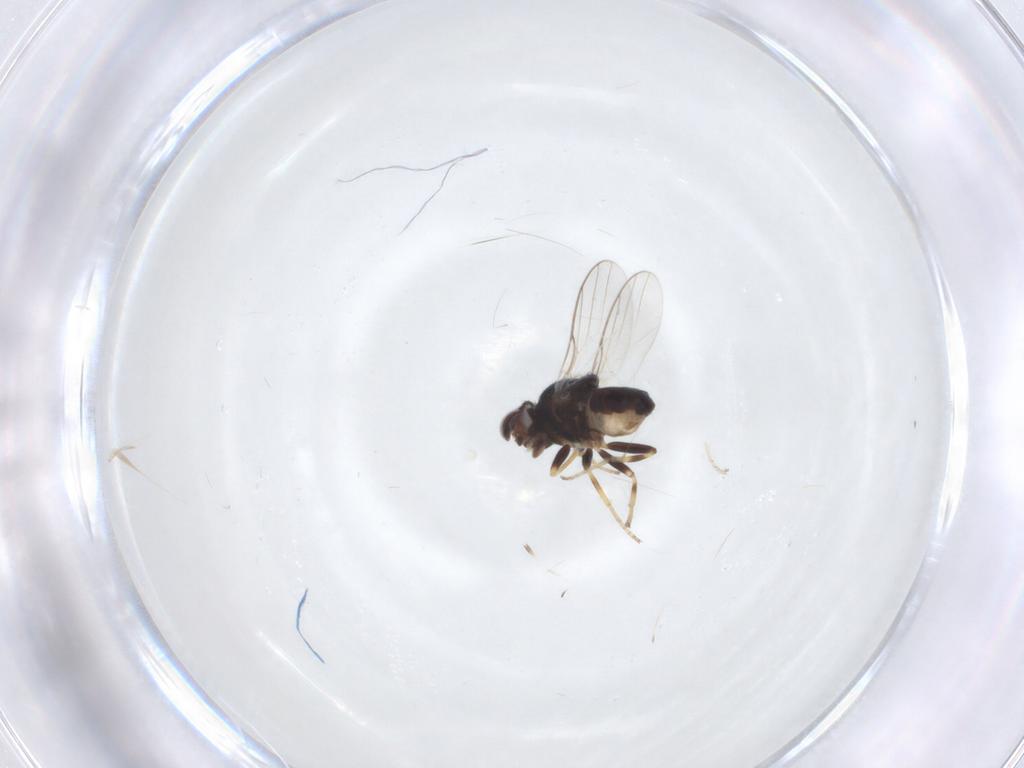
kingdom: Animalia
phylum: Arthropoda
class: Insecta
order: Diptera
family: Chloropidae
